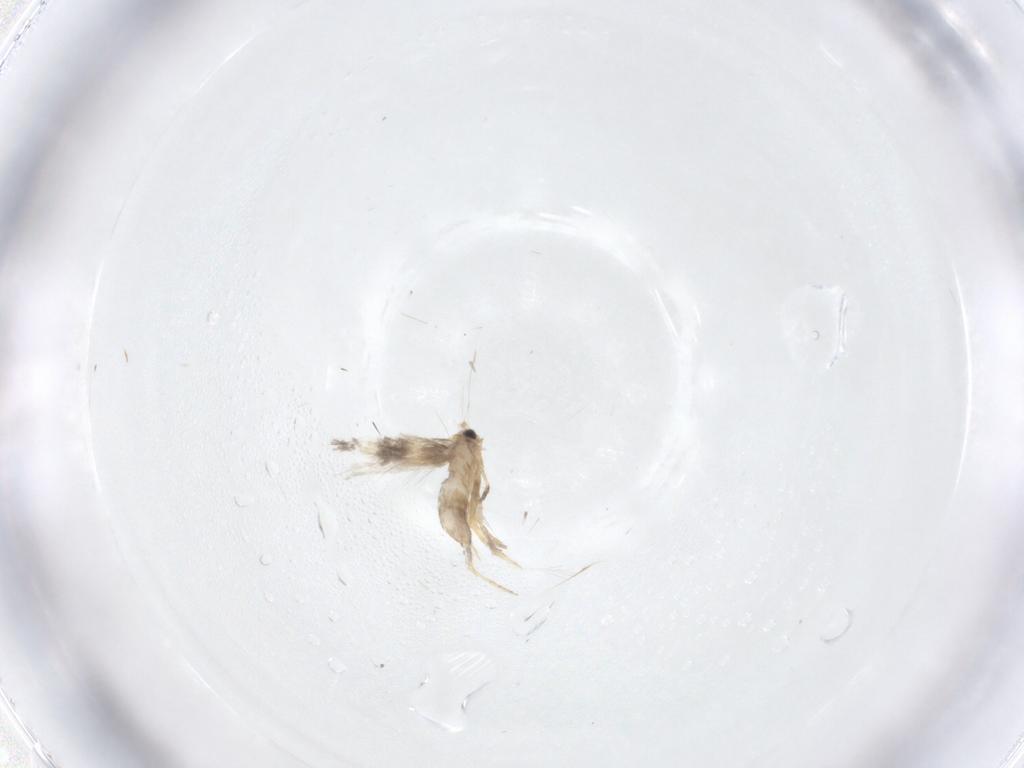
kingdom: Animalia
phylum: Arthropoda
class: Insecta
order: Lepidoptera
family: Nepticulidae
